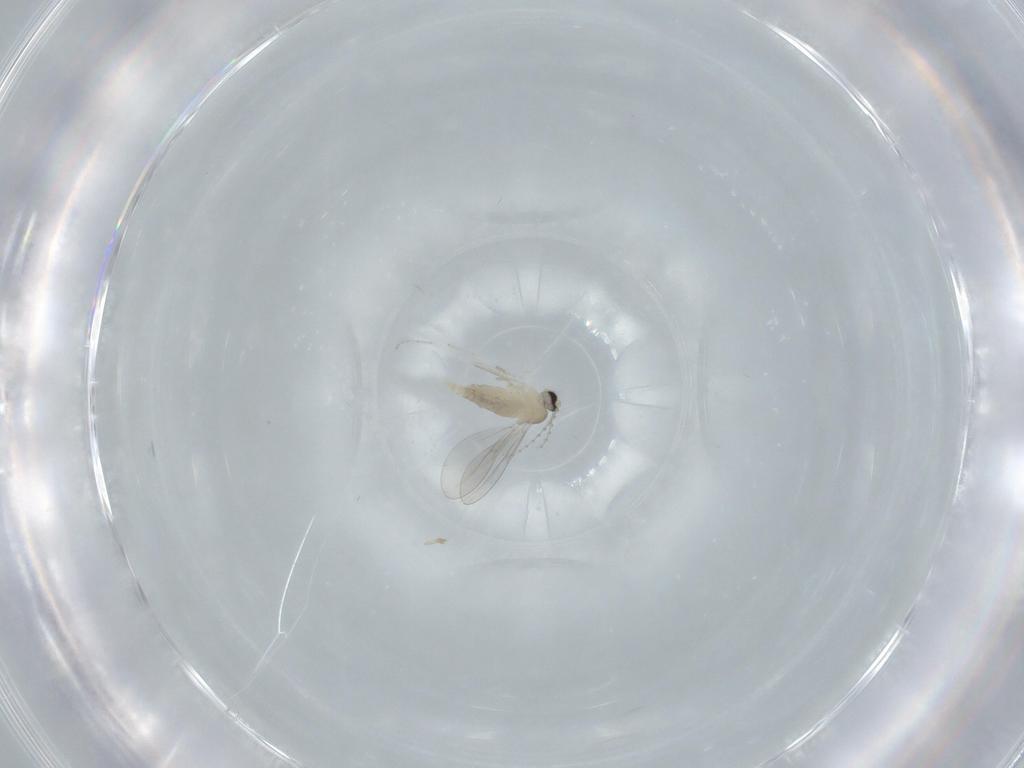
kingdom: Animalia
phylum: Arthropoda
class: Insecta
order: Diptera
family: Cecidomyiidae
